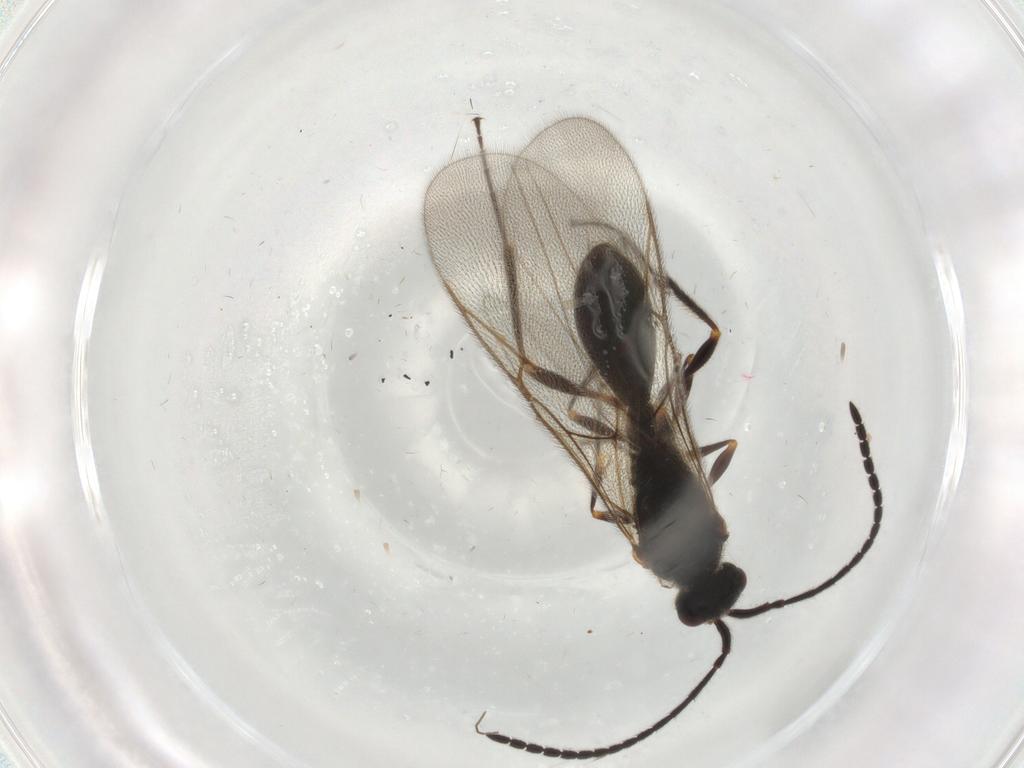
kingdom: Animalia
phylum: Arthropoda
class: Insecta
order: Hymenoptera
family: Diapriidae
